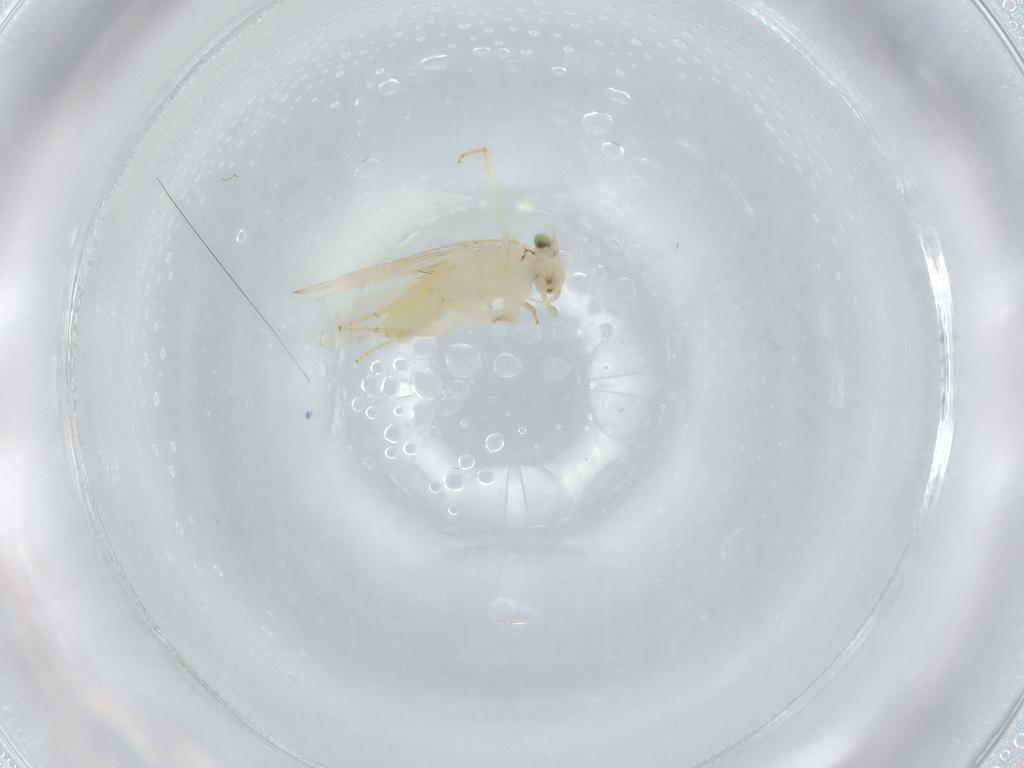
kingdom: Animalia
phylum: Arthropoda
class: Insecta
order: Psocodea
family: Lepidopsocidae
